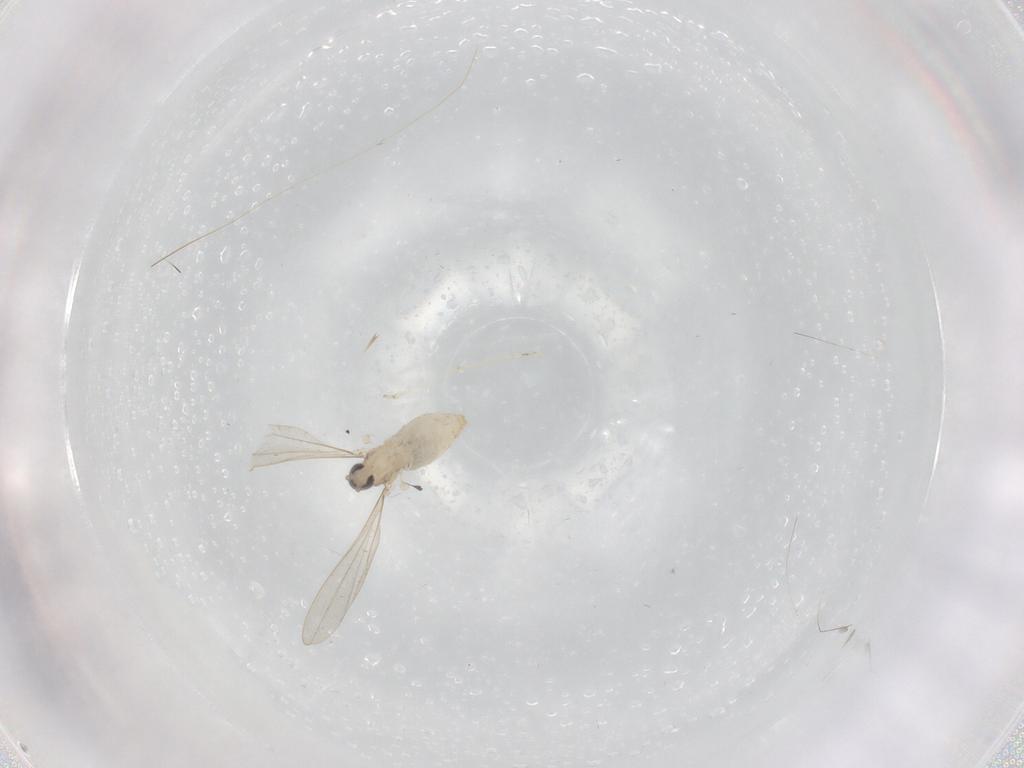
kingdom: Animalia
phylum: Arthropoda
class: Insecta
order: Diptera
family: Cecidomyiidae
